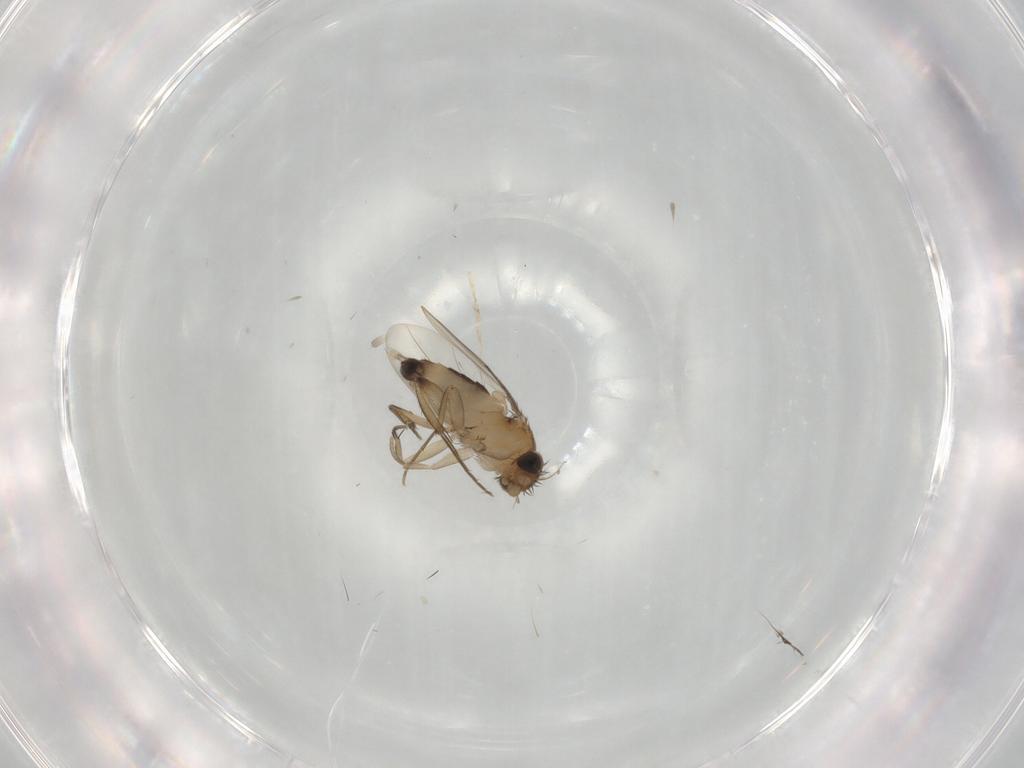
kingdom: Animalia
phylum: Arthropoda
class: Insecta
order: Diptera
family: Phoridae
